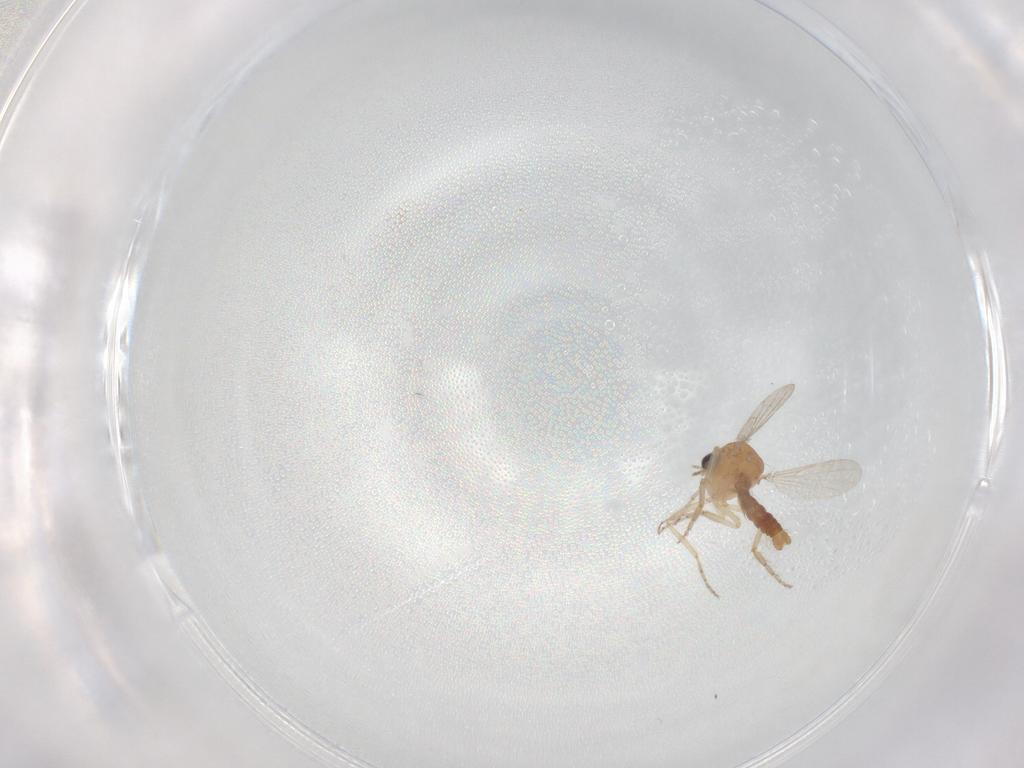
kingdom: Animalia
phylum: Arthropoda
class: Insecta
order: Diptera
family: Ceratopogonidae
